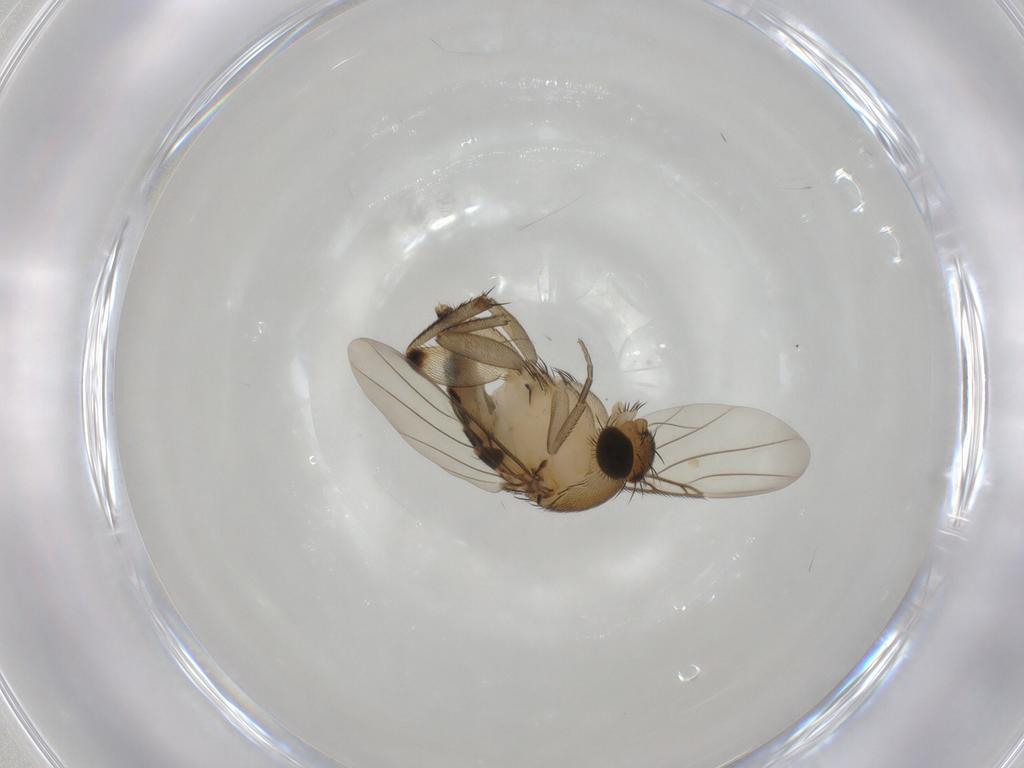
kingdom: Animalia
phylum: Arthropoda
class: Insecta
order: Diptera
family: Phoridae
